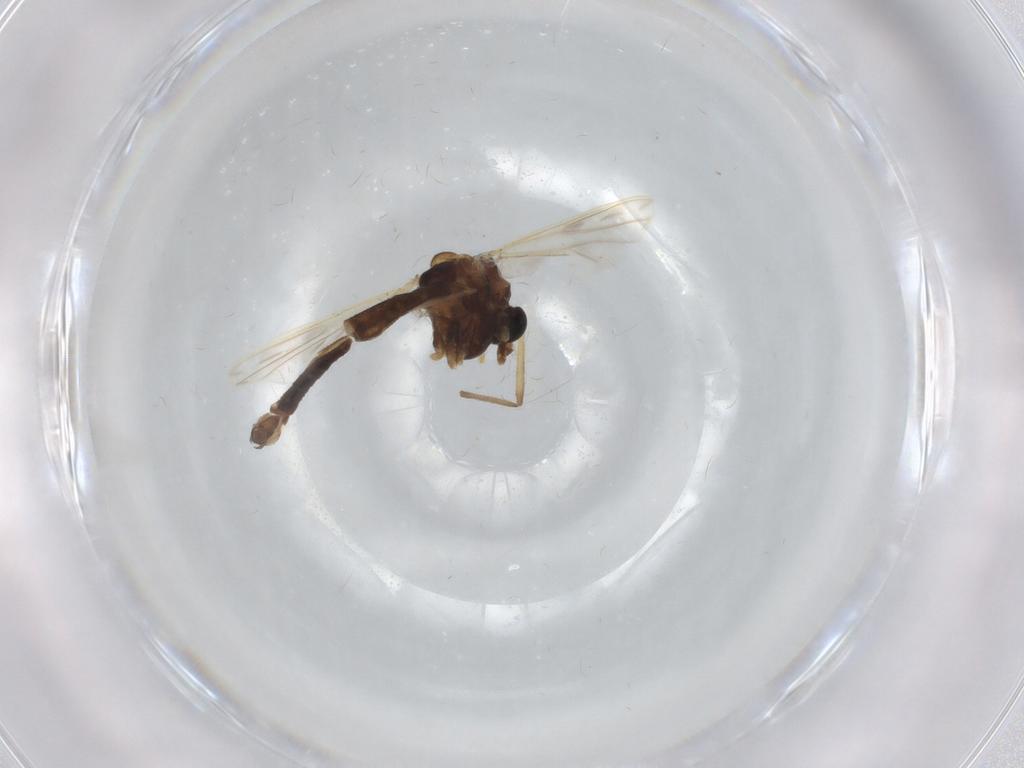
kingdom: Animalia
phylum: Arthropoda
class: Insecta
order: Diptera
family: Chironomidae
